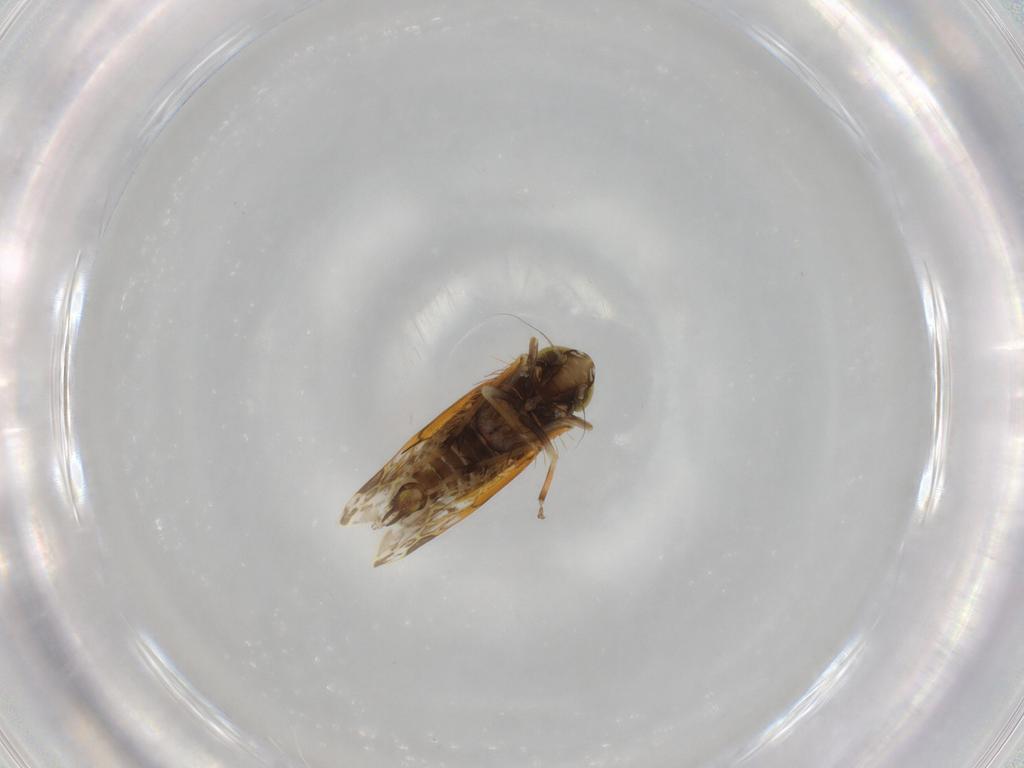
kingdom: Animalia
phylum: Arthropoda
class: Insecta
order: Hemiptera
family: Cicadellidae
